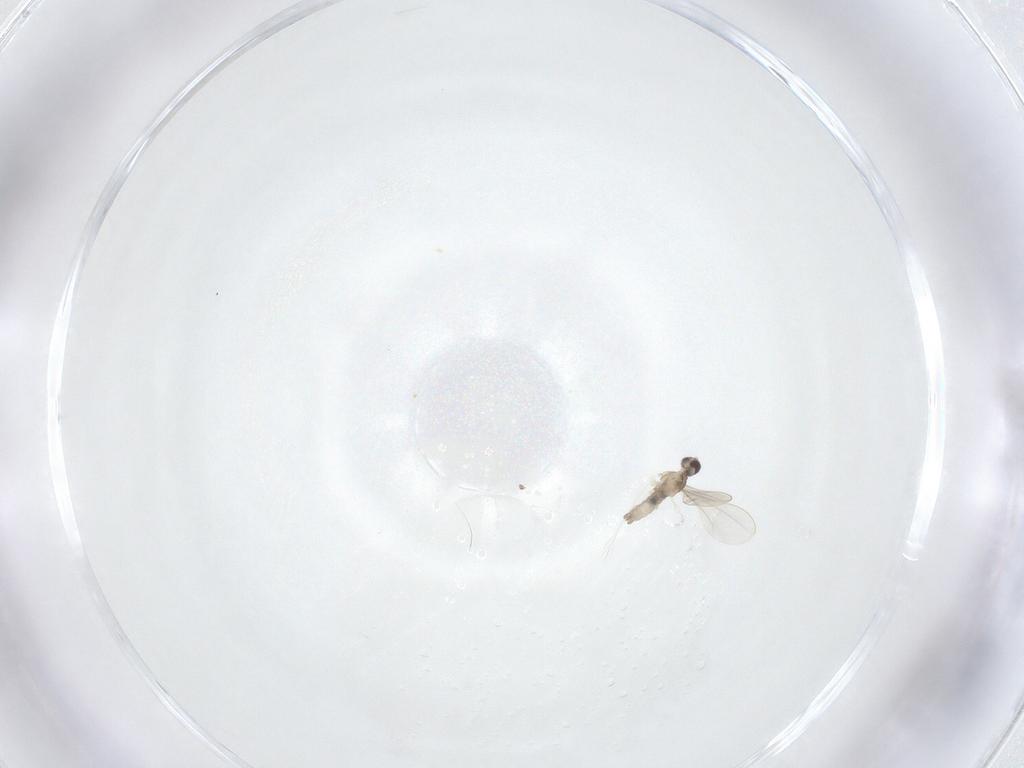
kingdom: Animalia
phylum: Arthropoda
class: Insecta
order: Diptera
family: Cecidomyiidae
